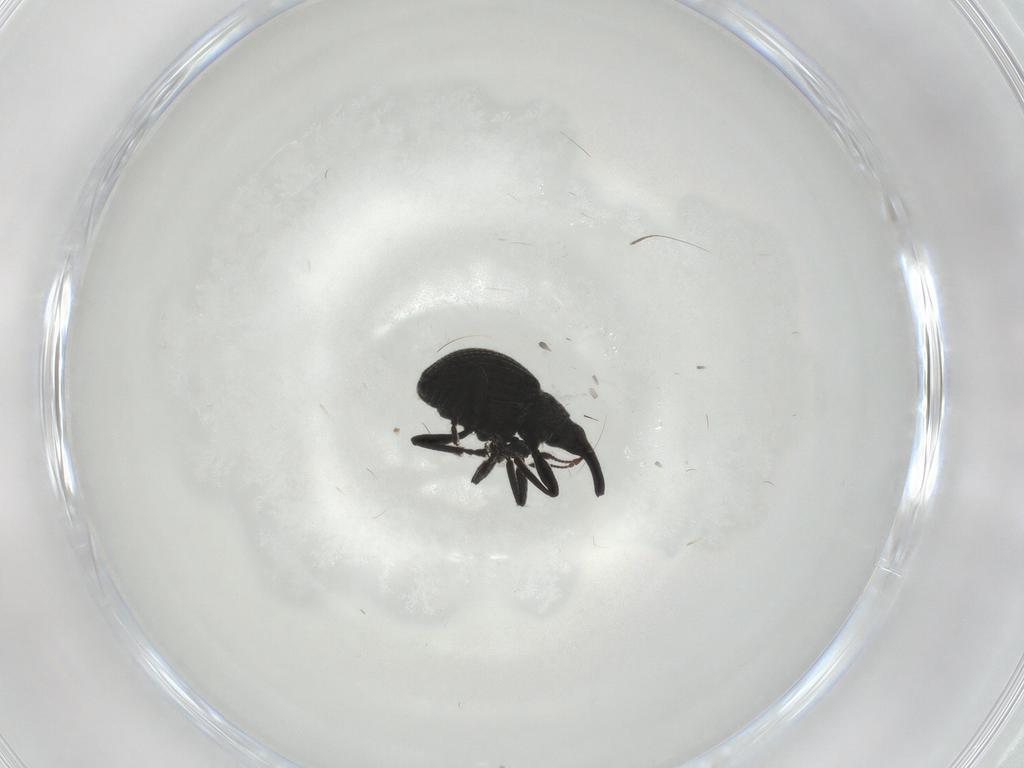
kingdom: Animalia
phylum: Arthropoda
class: Insecta
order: Coleoptera
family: Brentidae
